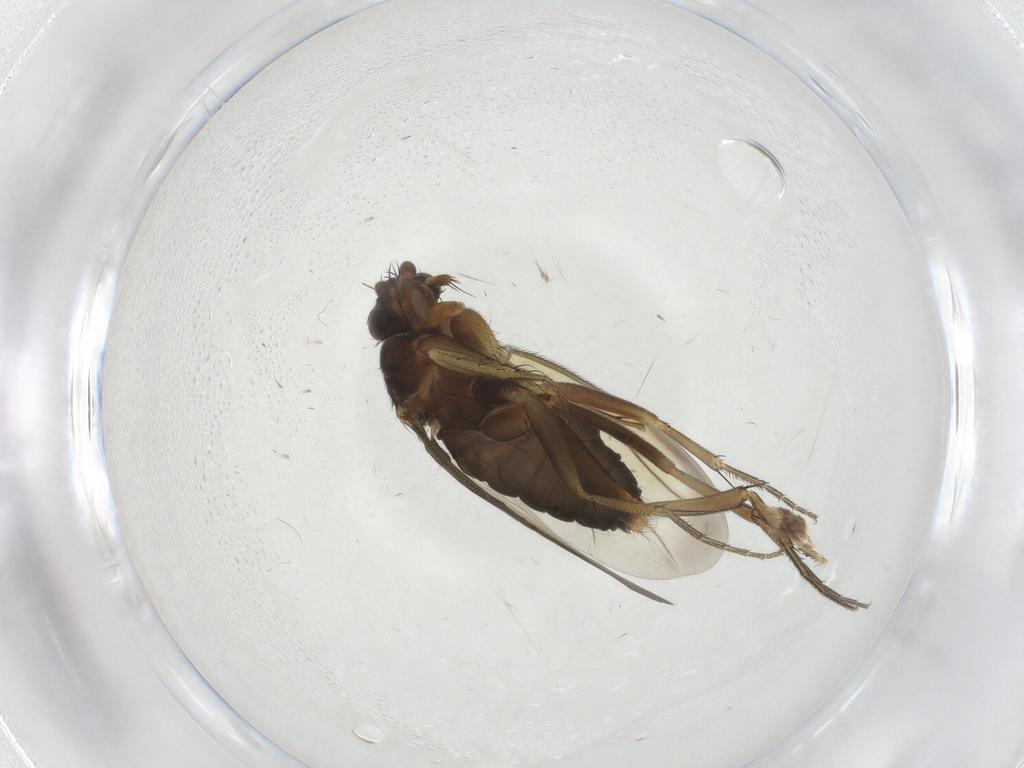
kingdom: Animalia
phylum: Arthropoda
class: Insecta
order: Diptera
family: Phoridae
